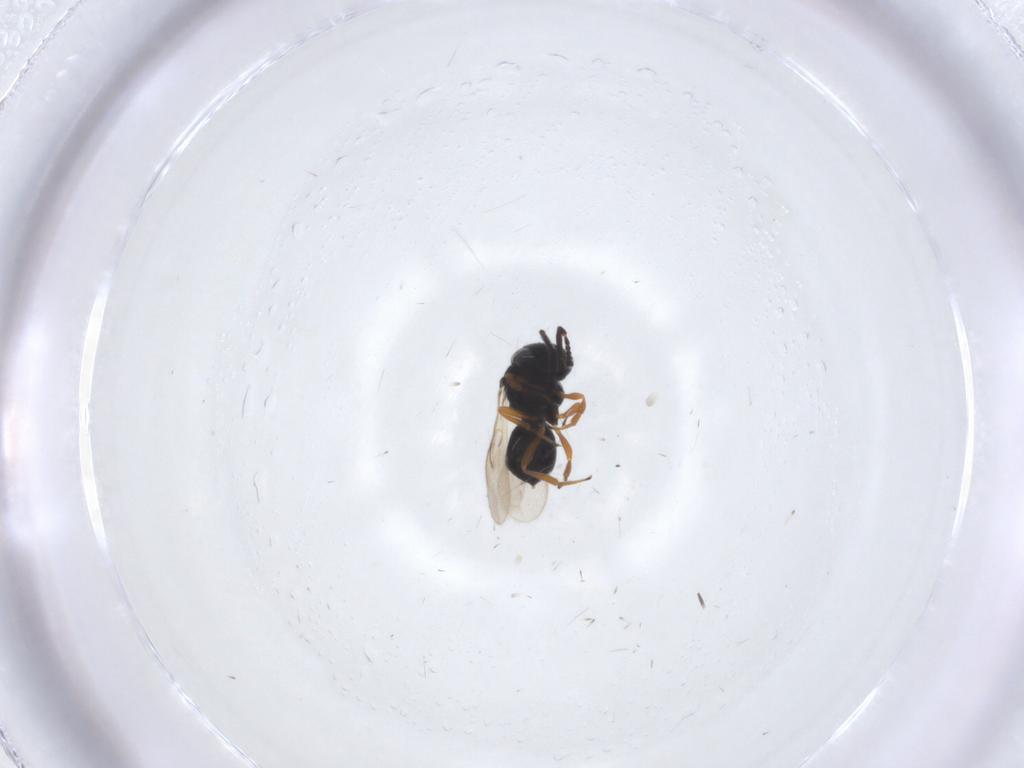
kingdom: Animalia
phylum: Arthropoda
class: Insecta
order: Hymenoptera
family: Scelionidae
